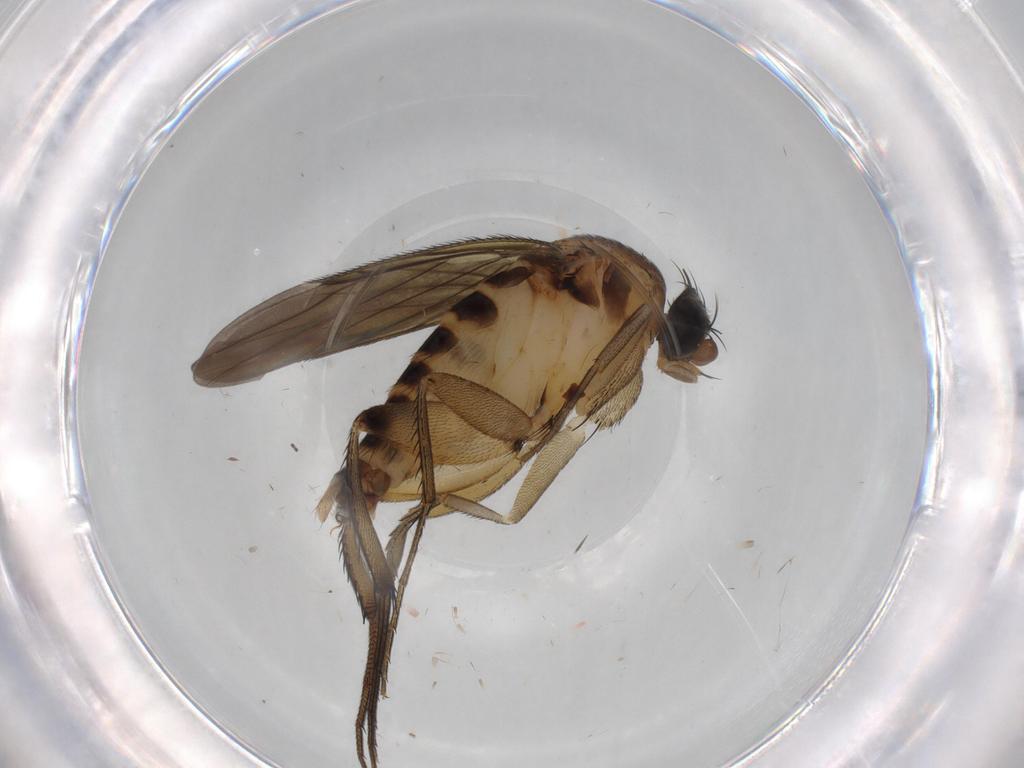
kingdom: Animalia
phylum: Arthropoda
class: Insecta
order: Diptera
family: Phoridae
